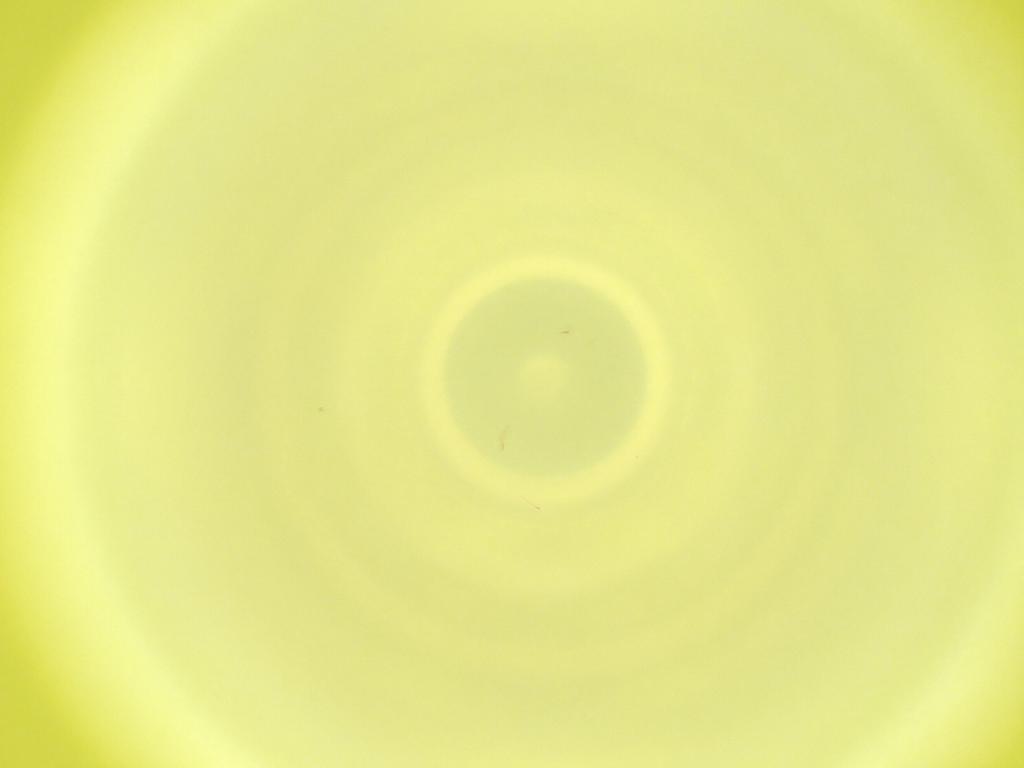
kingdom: Animalia
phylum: Arthropoda
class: Insecta
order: Diptera
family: Cecidomyiidae
